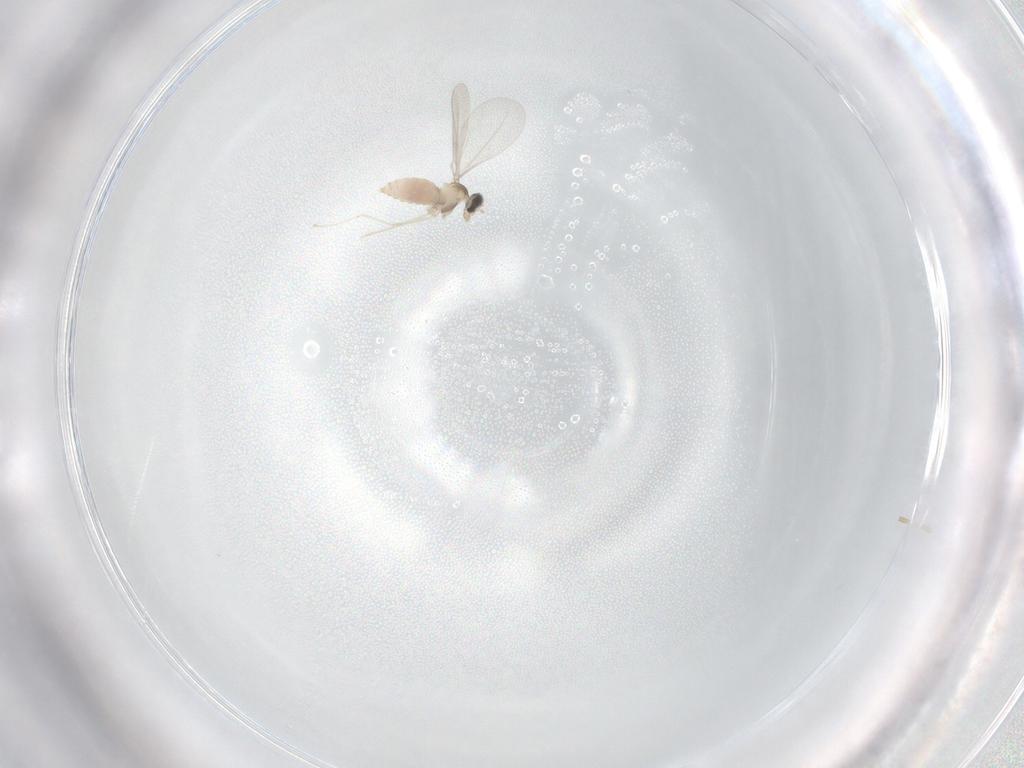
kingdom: Animalia
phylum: Arthropoda
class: Insecta
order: Diptera
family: Cecidomyiidae
